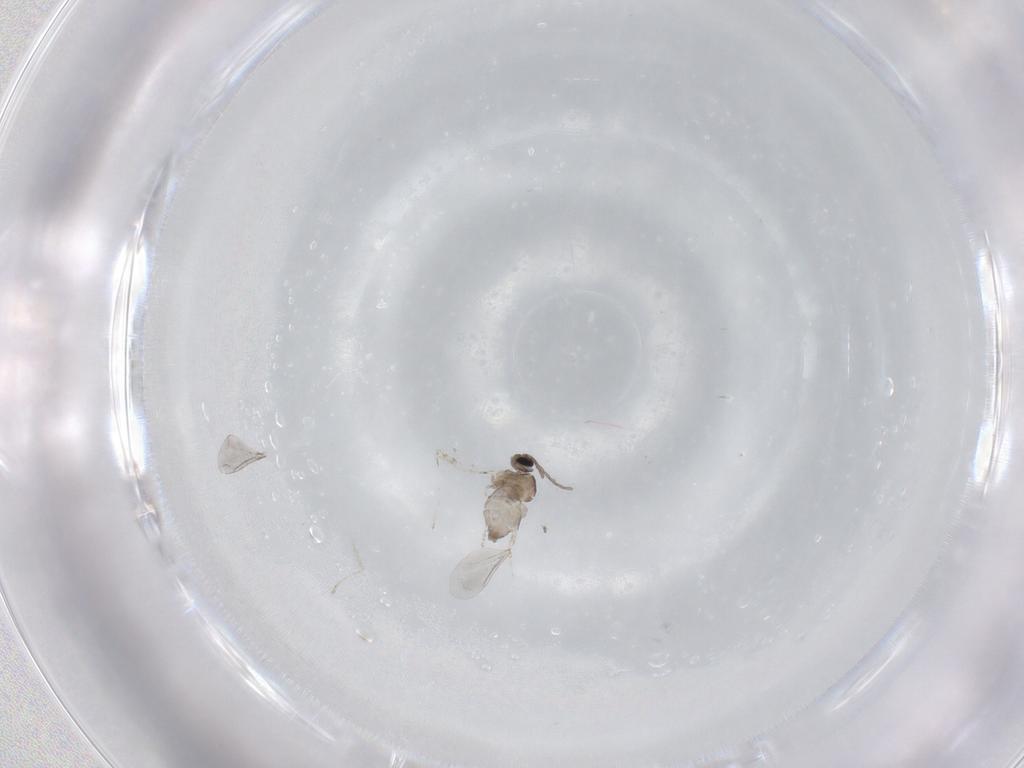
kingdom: Animalia
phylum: Arthropoda
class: Insecta
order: Diptera
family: Cecidomyiidae
